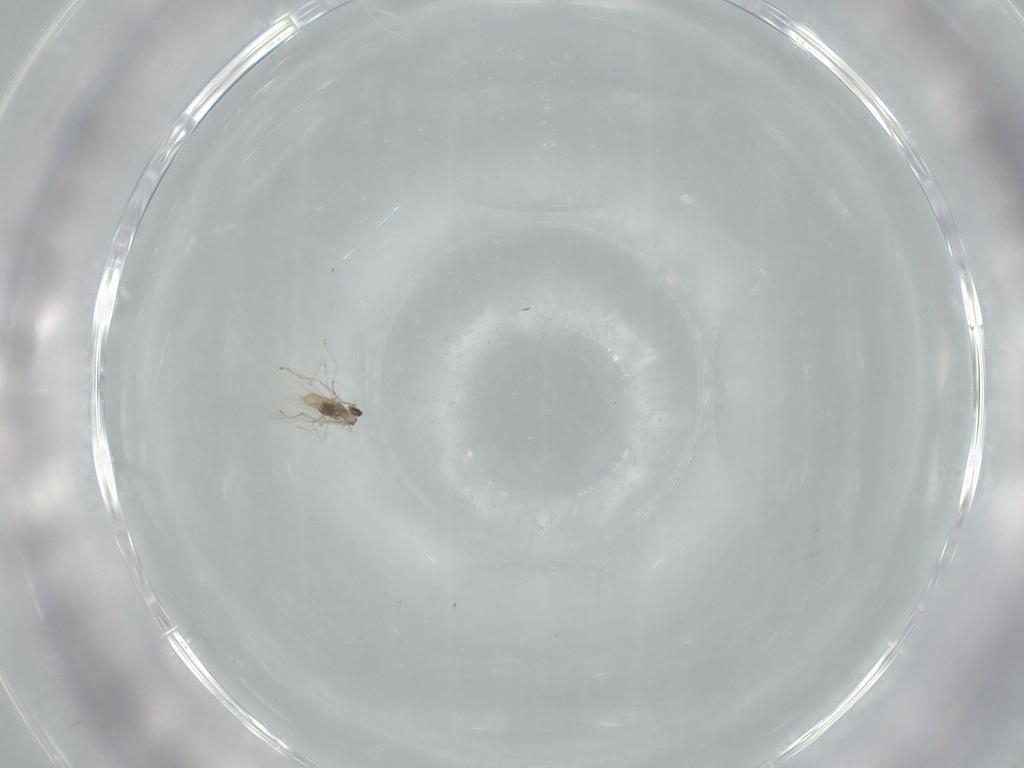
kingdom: Animalia
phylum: Arthropoda
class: Insecta
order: Diptera
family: Cecidomyiidae
